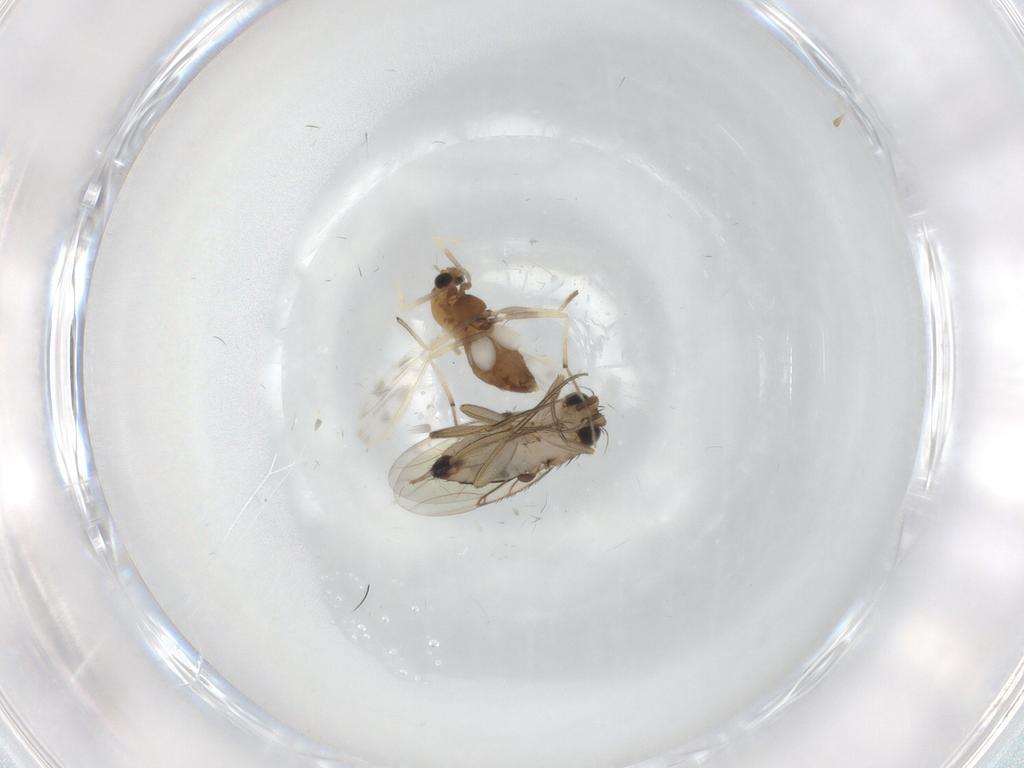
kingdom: Animalia
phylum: Arthropoda
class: Insecta
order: Diptera
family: Phoridae
